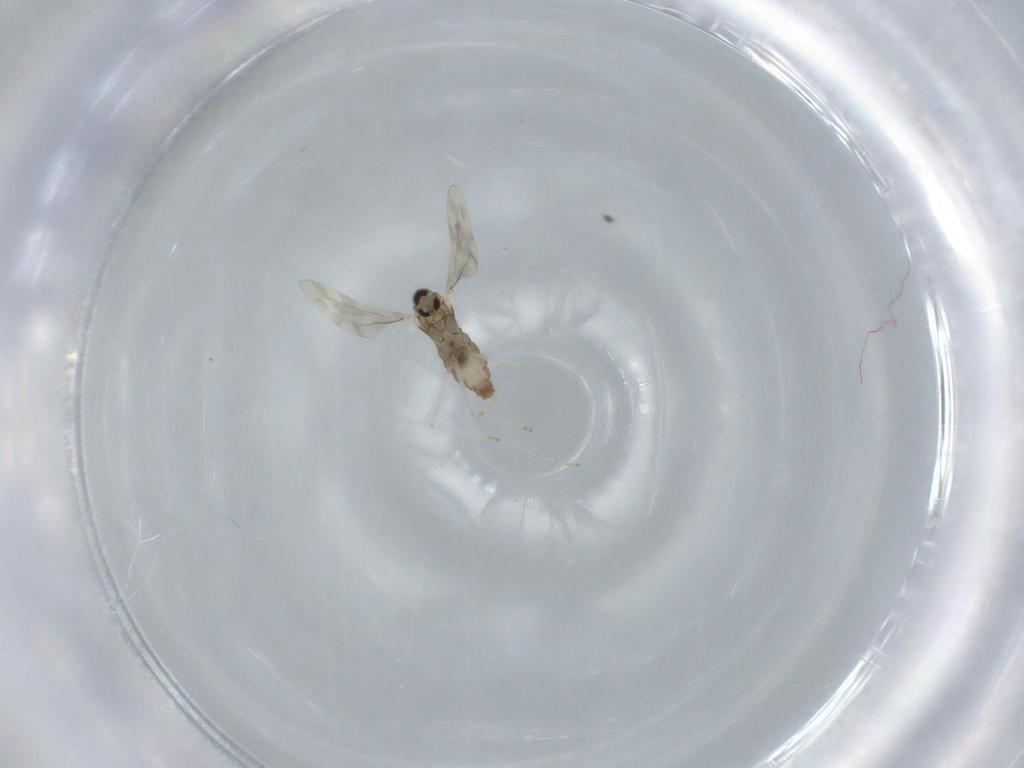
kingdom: Animalia
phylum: Arthropoda
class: Insecta
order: Diptera
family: Cecidomyiidae
